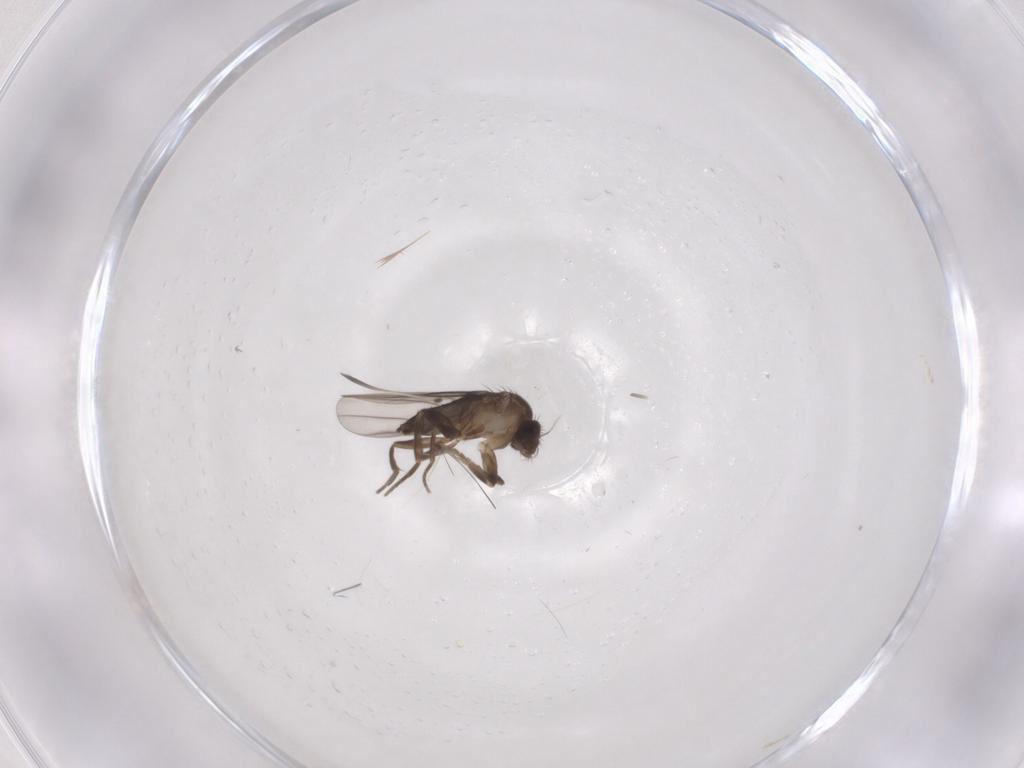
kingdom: Animalia
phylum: Arthropoda
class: Insecta
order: Diptera
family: Phoridae
